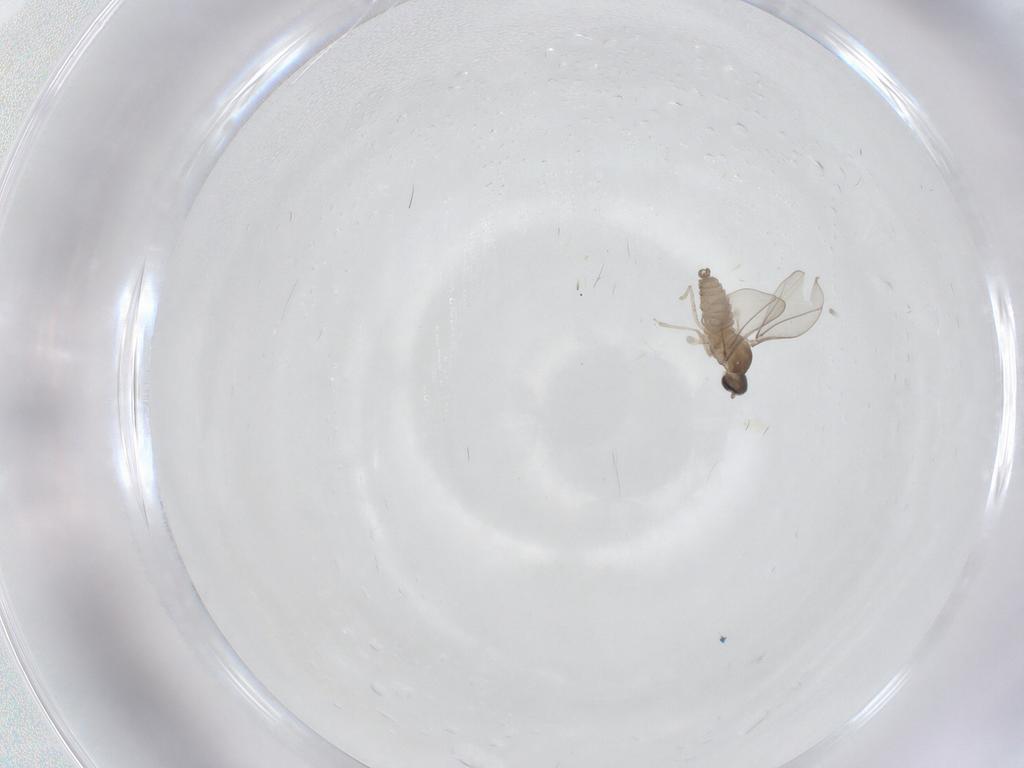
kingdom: Animalia
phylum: Arthropoda
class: Insecta
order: Diptera
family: Cecidomyiidae
